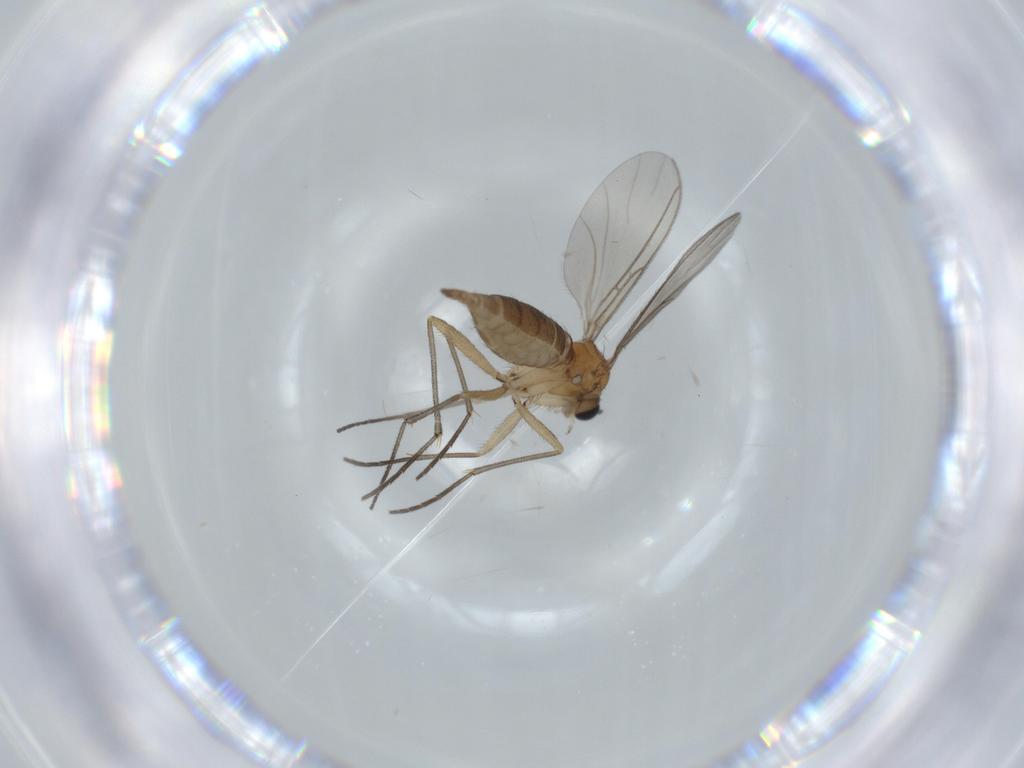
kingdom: Animalia
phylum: Arthropoda
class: Insecta
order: Diptera
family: Sciaridae
